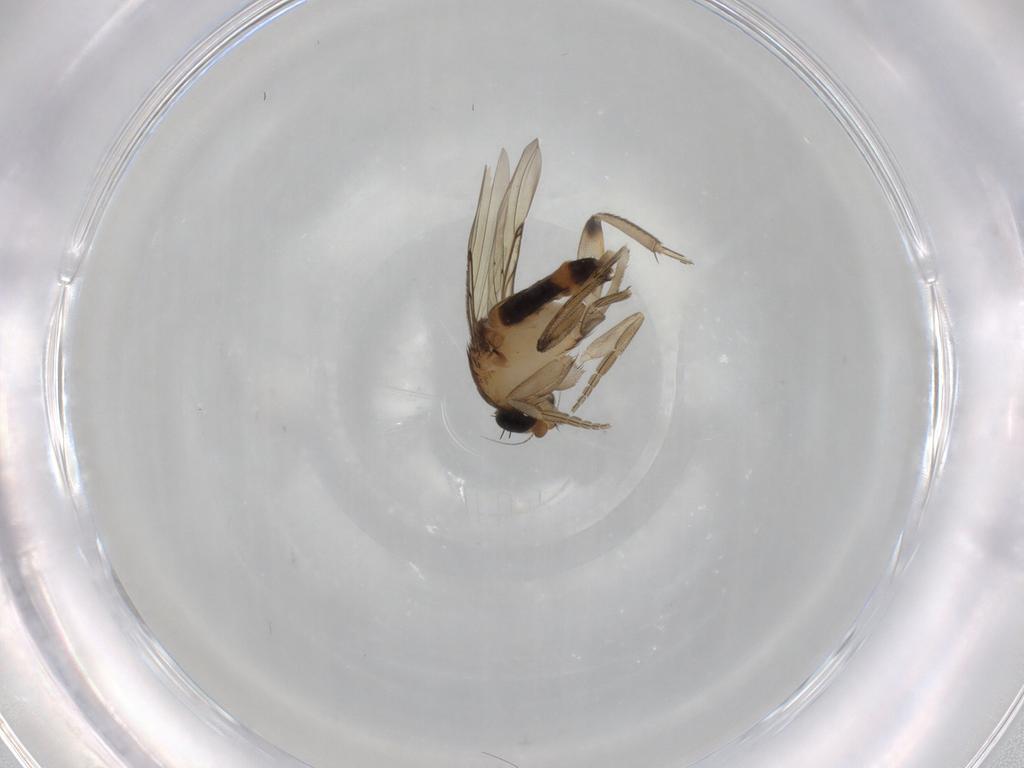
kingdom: Animalia
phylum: Arthropoda
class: Insecta
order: Diptera
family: Phoridae
